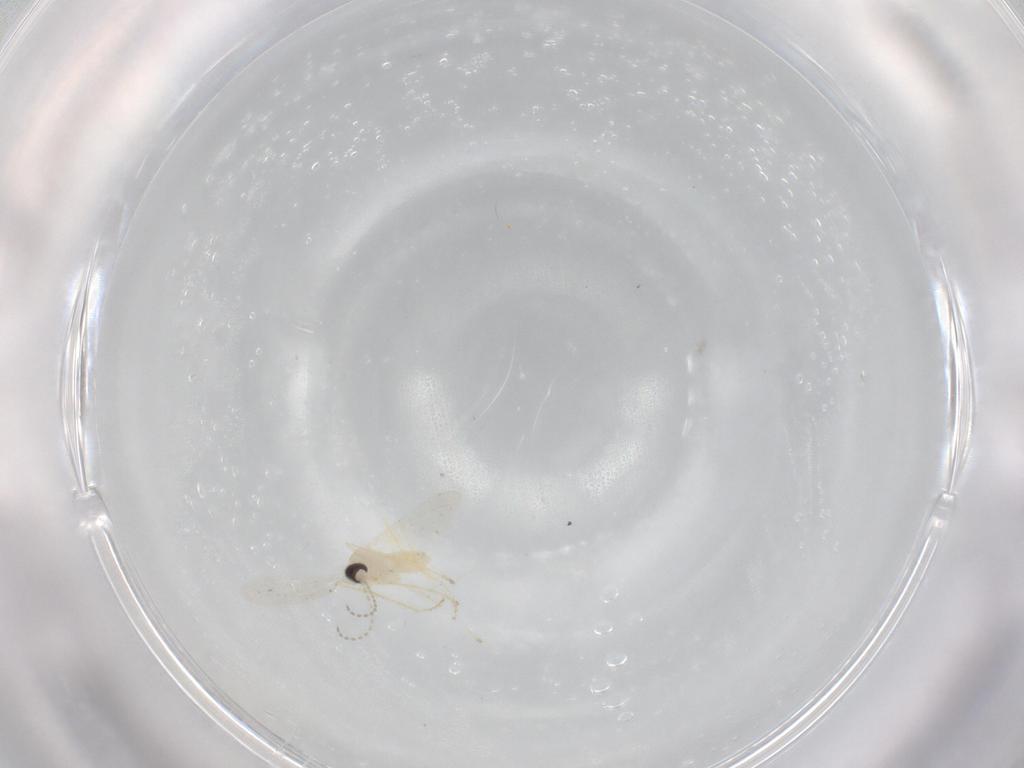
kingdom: Animalia
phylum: Arthropoda
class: Insecta
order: Diptera
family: Cecidomyiidae
